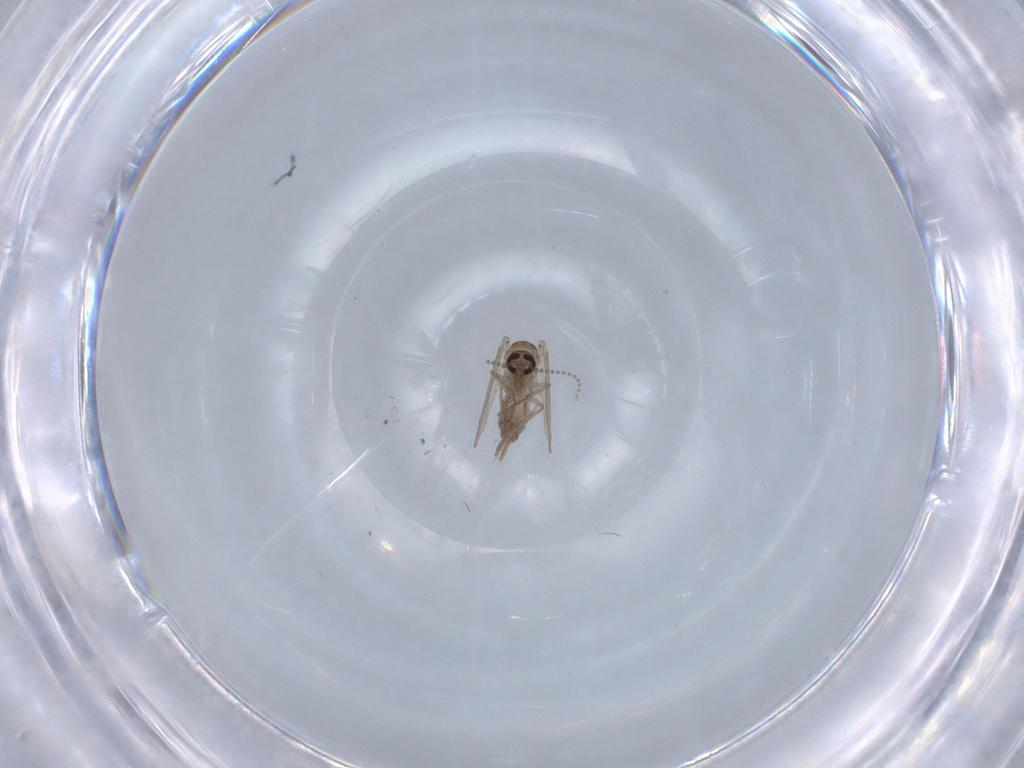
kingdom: Animalia
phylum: Arthropoda
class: Insecta
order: Diptera
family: Psychodidae
